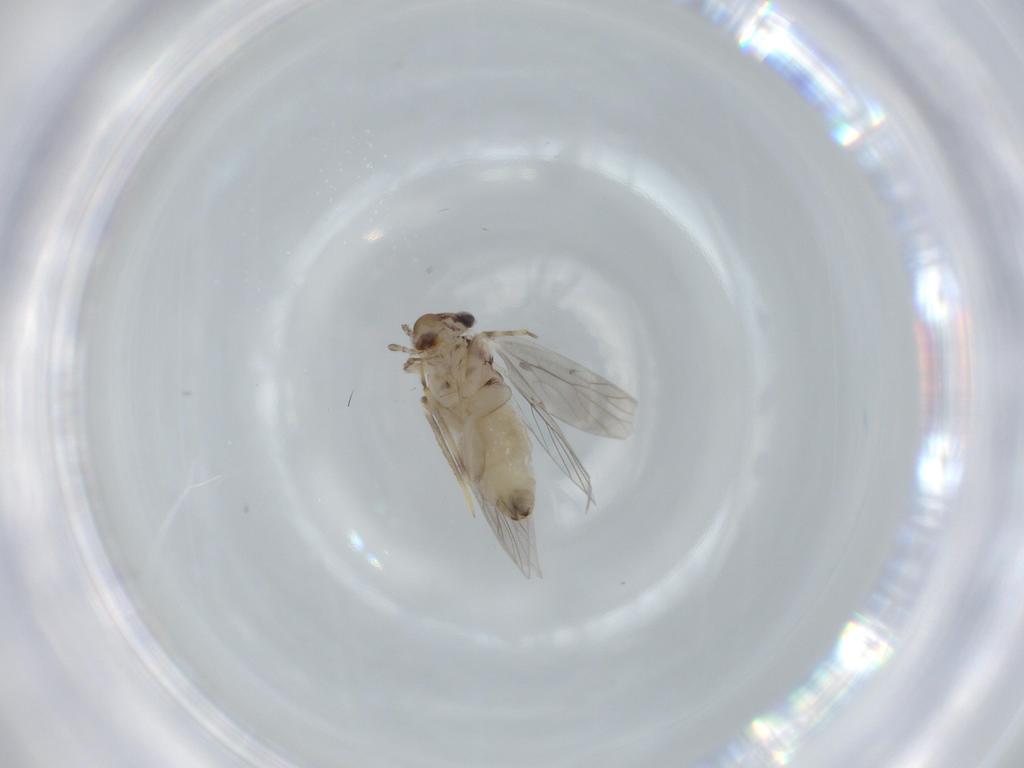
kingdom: Animalia
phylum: Arthropoda
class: Insecta
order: Psocodea
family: Lepidopsocidae
